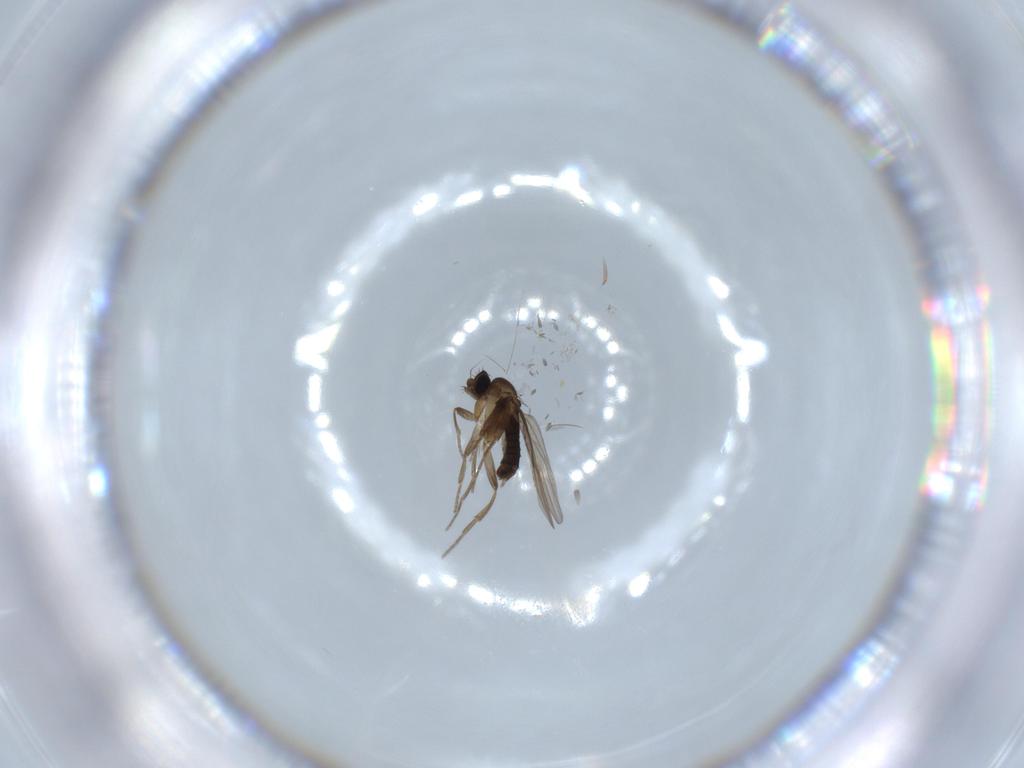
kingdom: Animalia
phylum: Arthropoda
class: Insecta
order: Diptera
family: Phoridae
